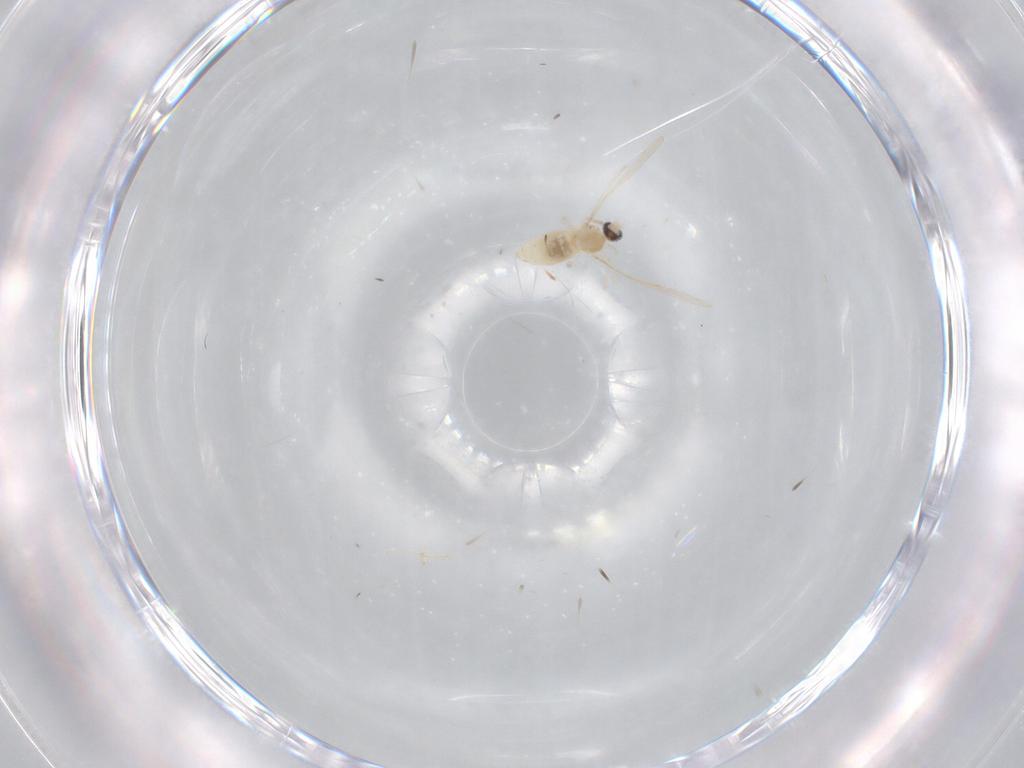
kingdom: Animalia
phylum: Arthropoda
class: Insecta
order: Diptera
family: Cecidomyiidae
